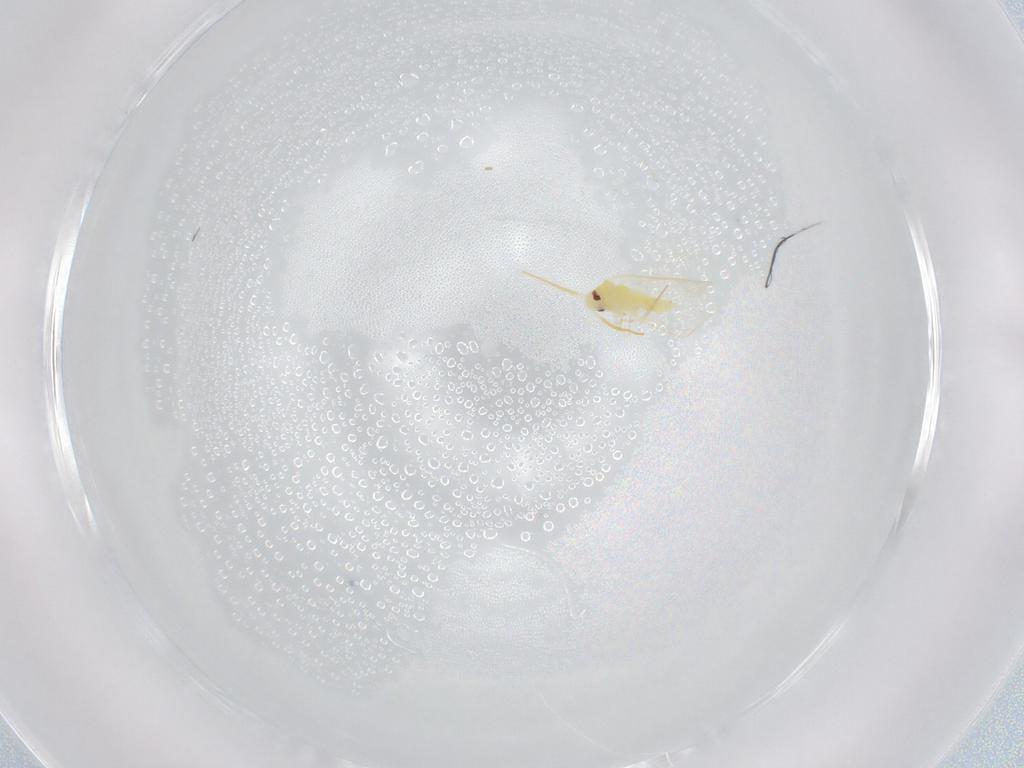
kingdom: Animalia
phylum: Arthropoda
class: Insecta
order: Hemiptera
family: Aleyrodidae
